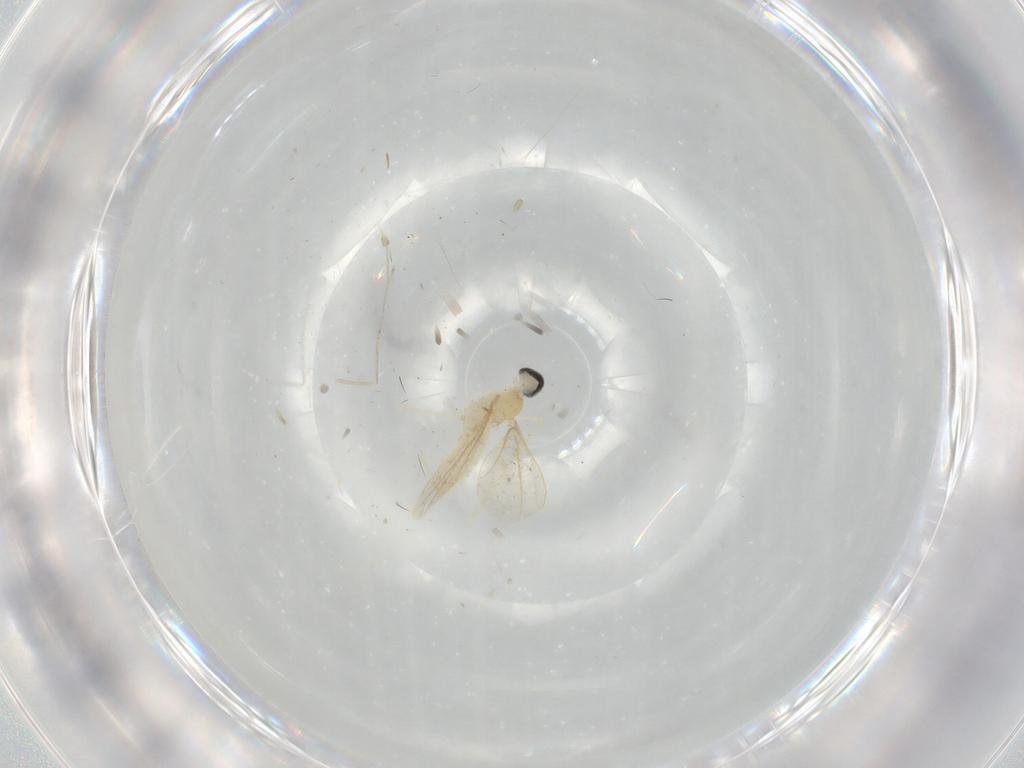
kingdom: Animalia
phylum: Arthropoda
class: Insecta
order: Diptera
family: Cecidomyiidae
